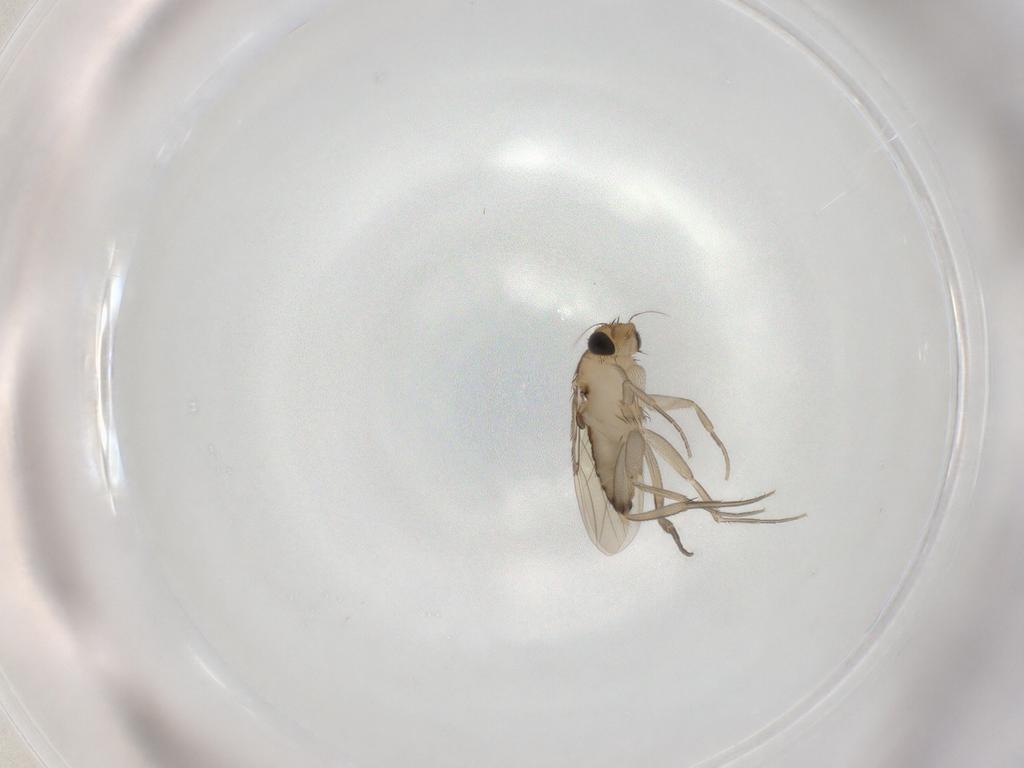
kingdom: Animalia
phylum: Arthropoda
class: Insecta
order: Diptera
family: Phoridae
